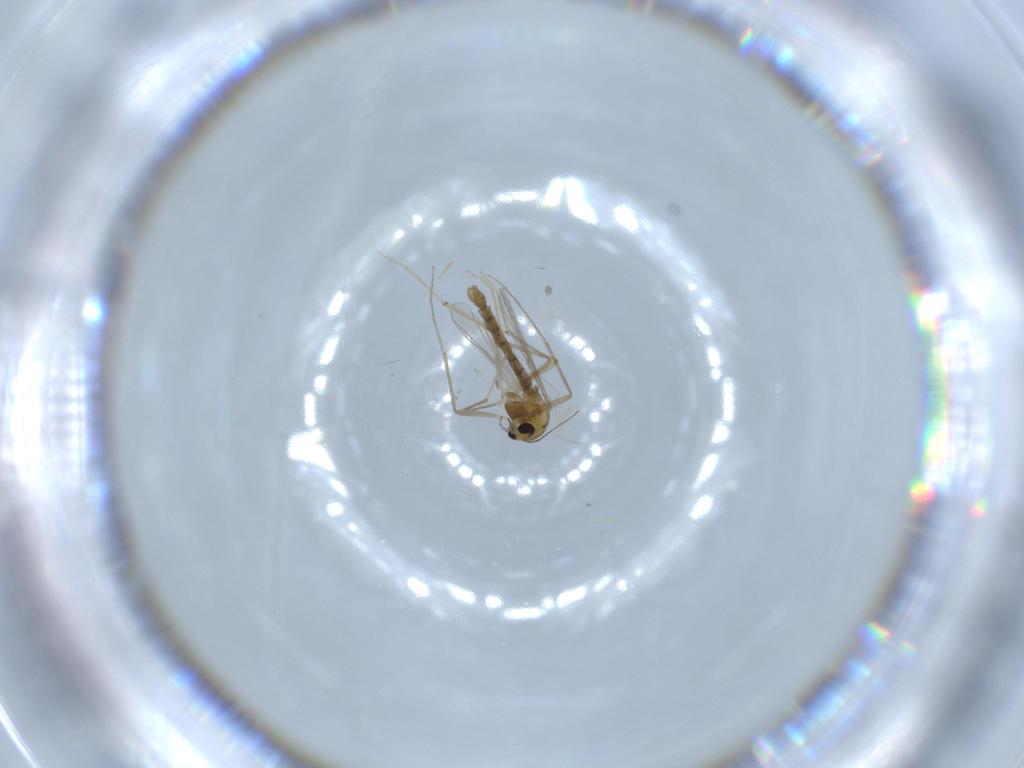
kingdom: Animalia
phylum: Arthropoda
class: Insecta
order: Diptera
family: Chironomidae
